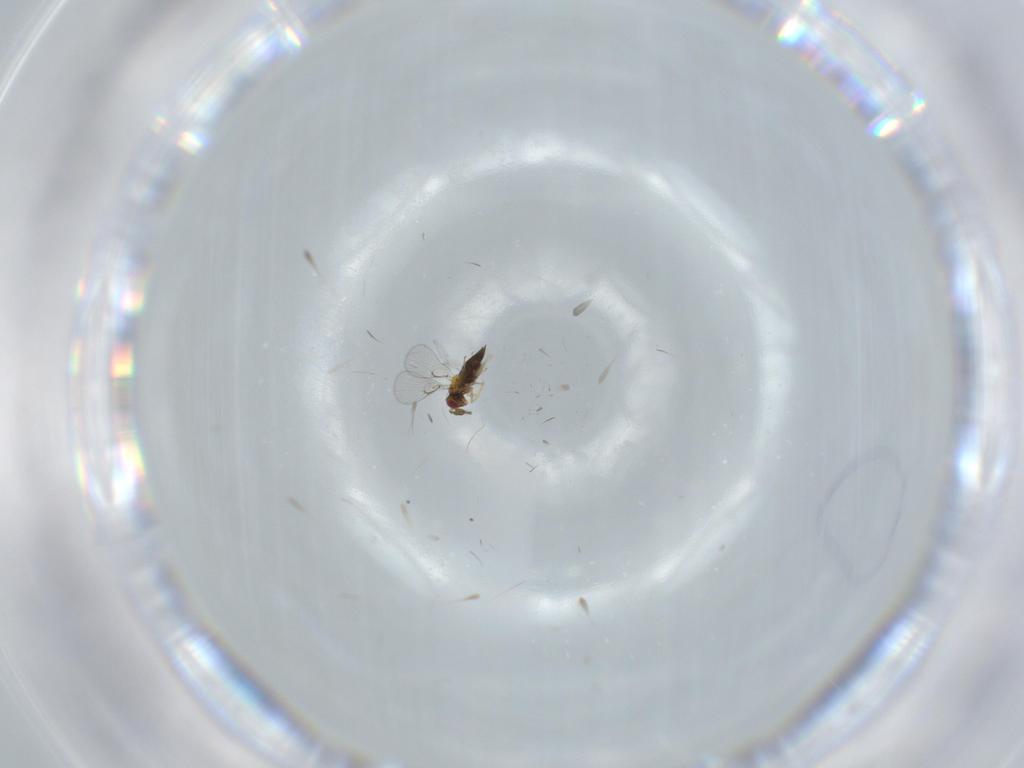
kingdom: Animalia
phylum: Arthropoda
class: Insecta
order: Hymenoptera
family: Trichogrammatidae
